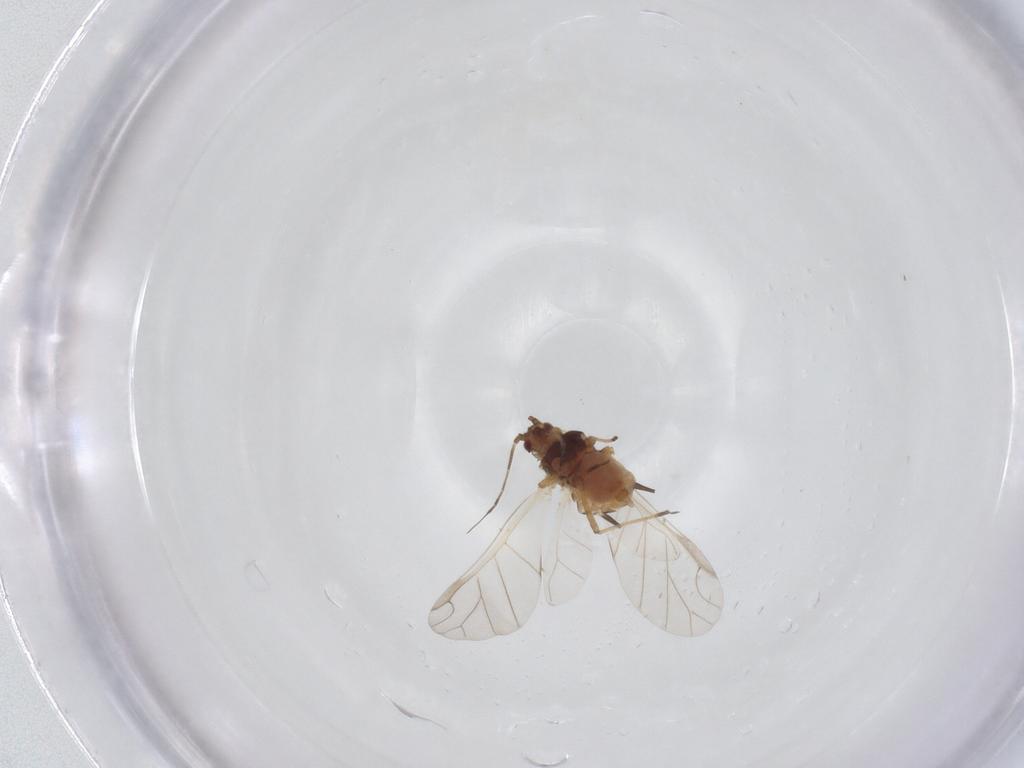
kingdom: Animalia
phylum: Arthropoda
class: Insecta
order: Hemiptera
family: Aphididae
